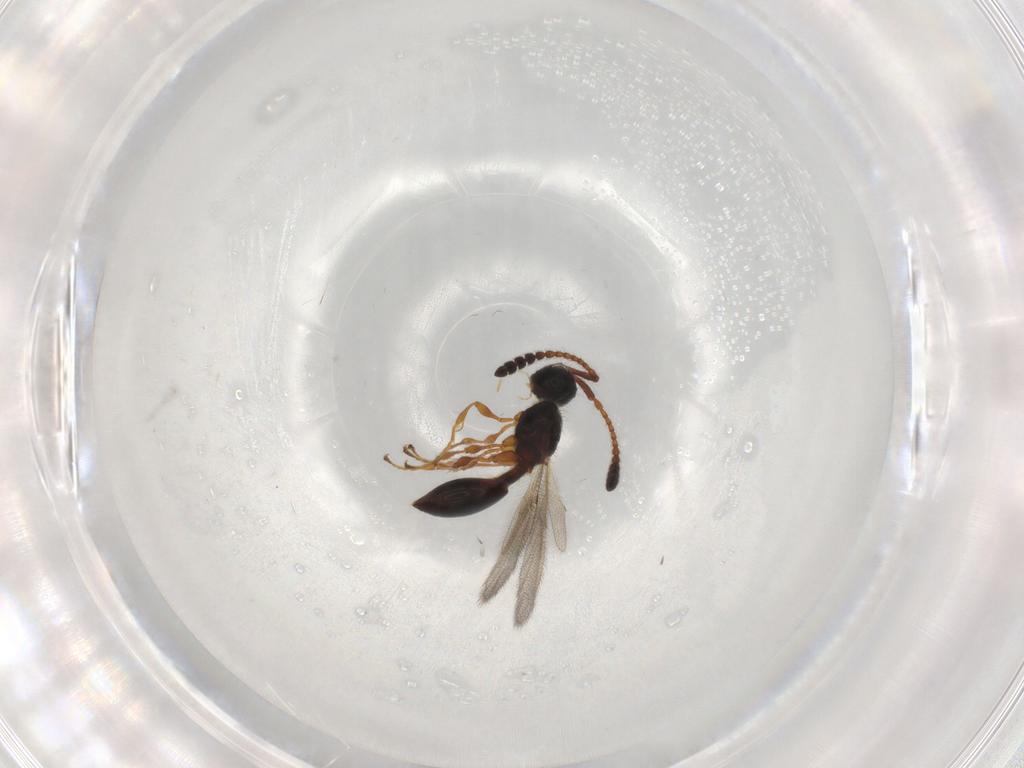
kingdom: Animalia
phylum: Arthropoda
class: Insecta
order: Hymenoptera
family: Diapriidae
